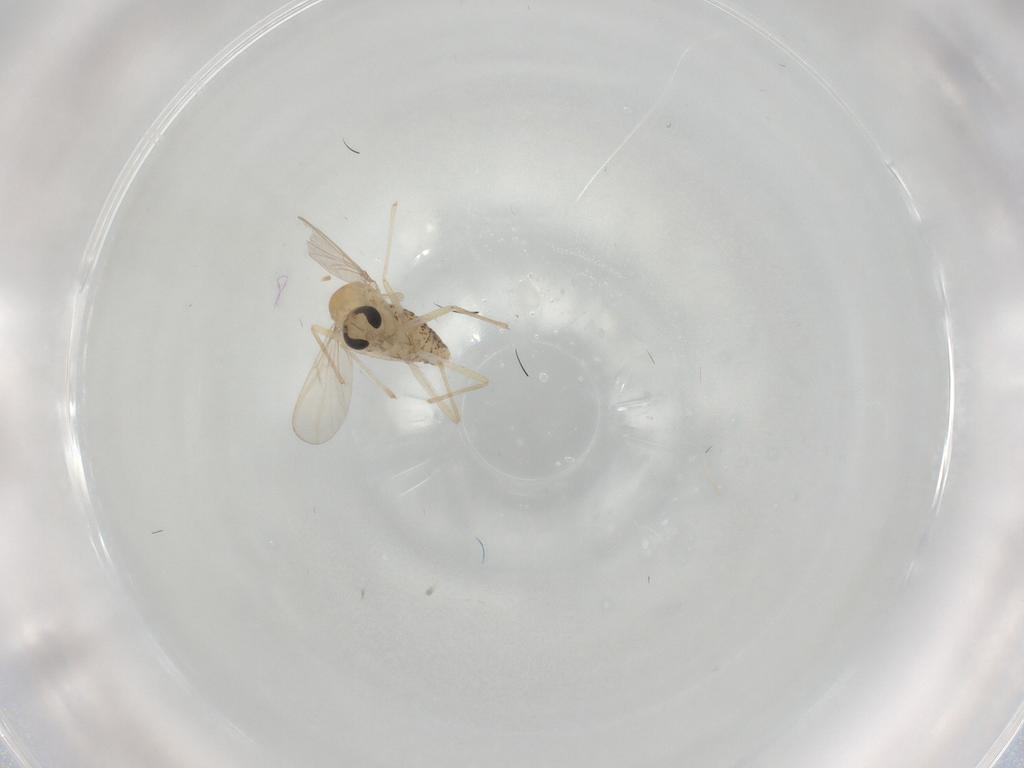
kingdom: Animalia
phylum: Arthropoda
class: Insecta
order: Diptera
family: Chironomidae
